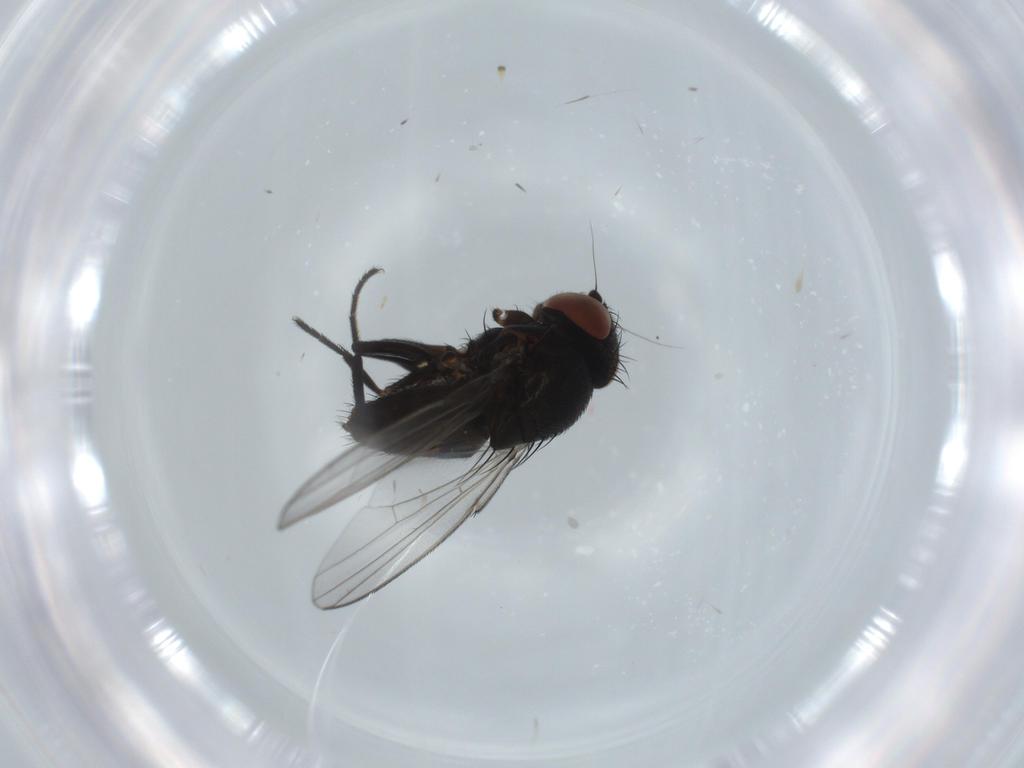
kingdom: Animalia
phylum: Arthropoda
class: Insecta
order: Diptera
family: Milichiidae
